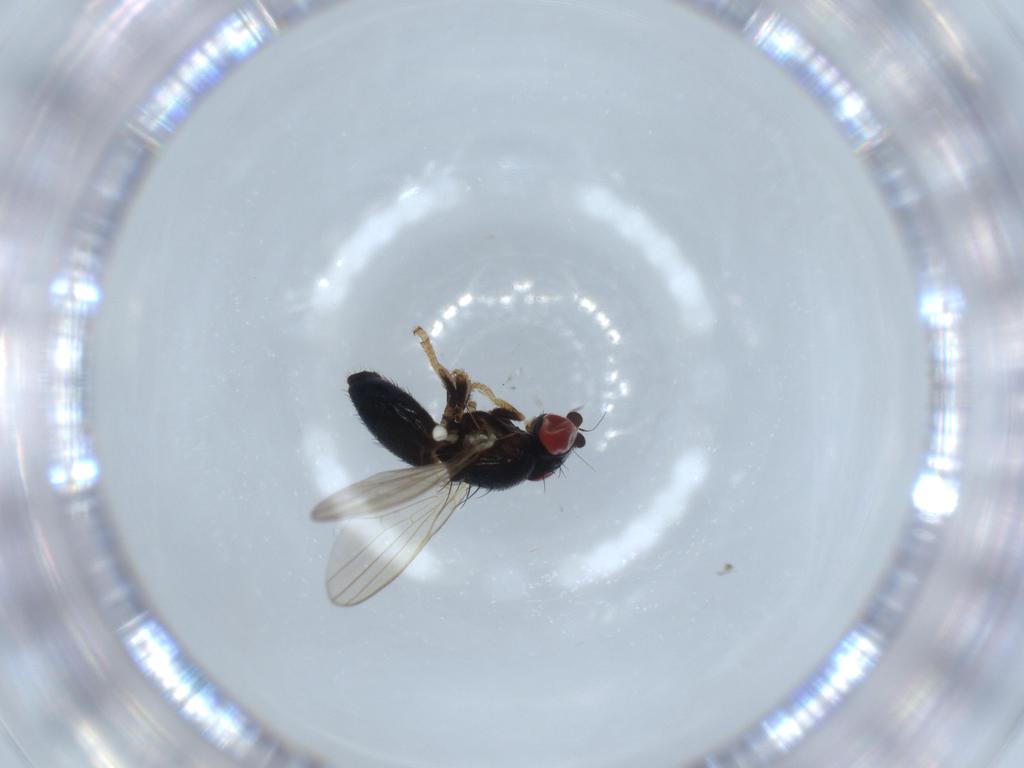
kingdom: Animalia
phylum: Arthropoda
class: Insecta
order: Diptera
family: Chamaemyiidae
